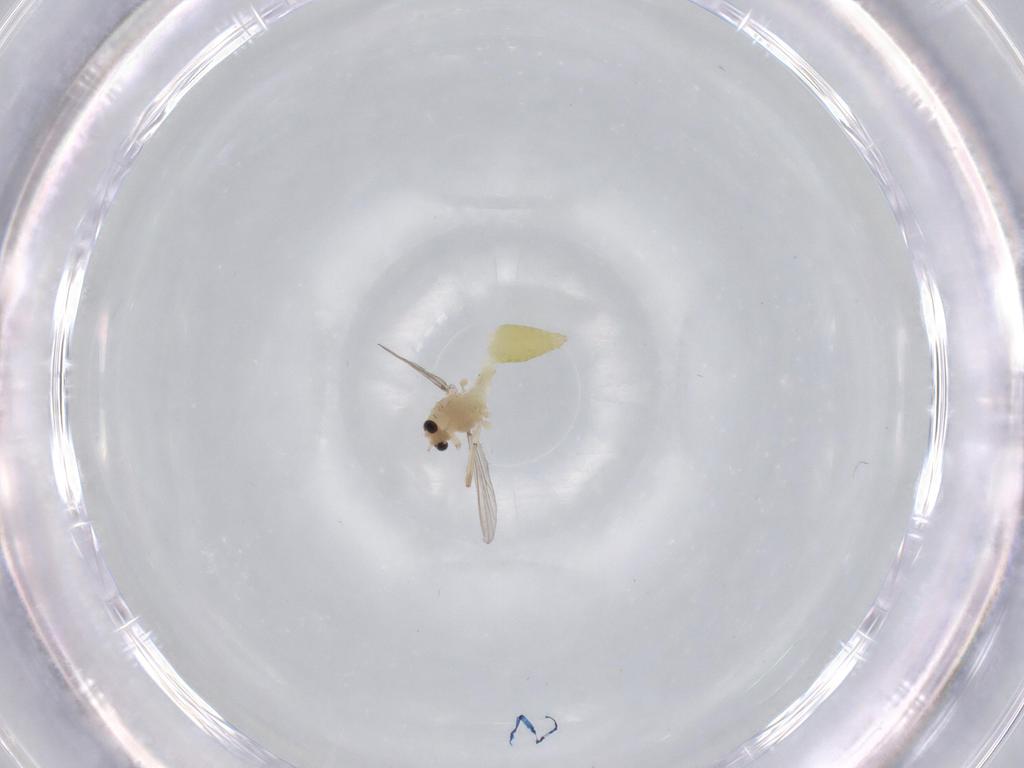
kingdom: Animalia
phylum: Arthropoda
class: Insecta
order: Diptera
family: Chironomidae
